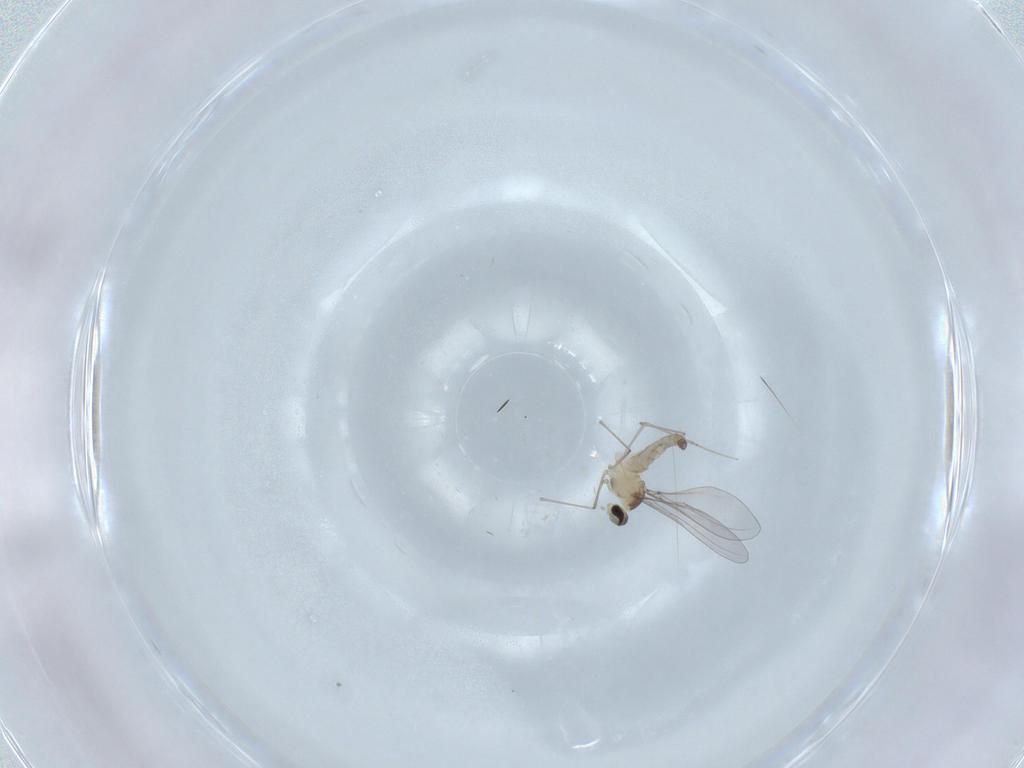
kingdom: Animalia
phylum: Arthropoda
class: Insecta
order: Diptera
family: Cecidomyiidae
